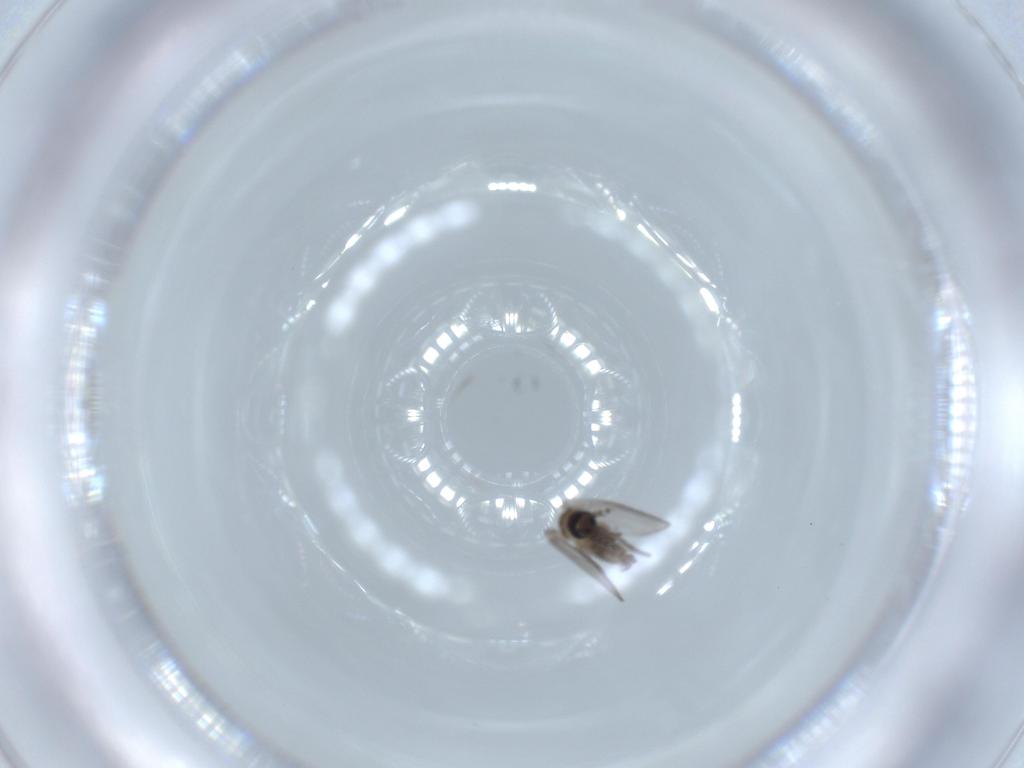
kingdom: Animalia
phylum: Arthropoda
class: Insecta
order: Diptera
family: Psychodidae
